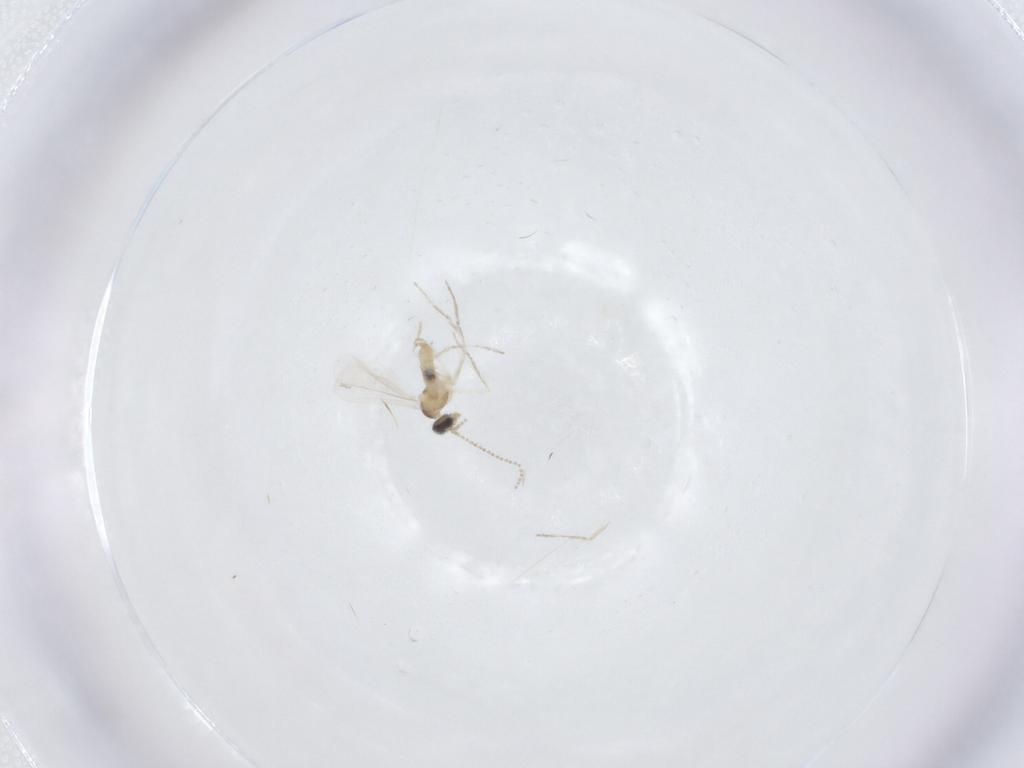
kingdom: Animalia
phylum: Arthropoda
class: Insecta
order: Diptera
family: Cecidomyiidae
